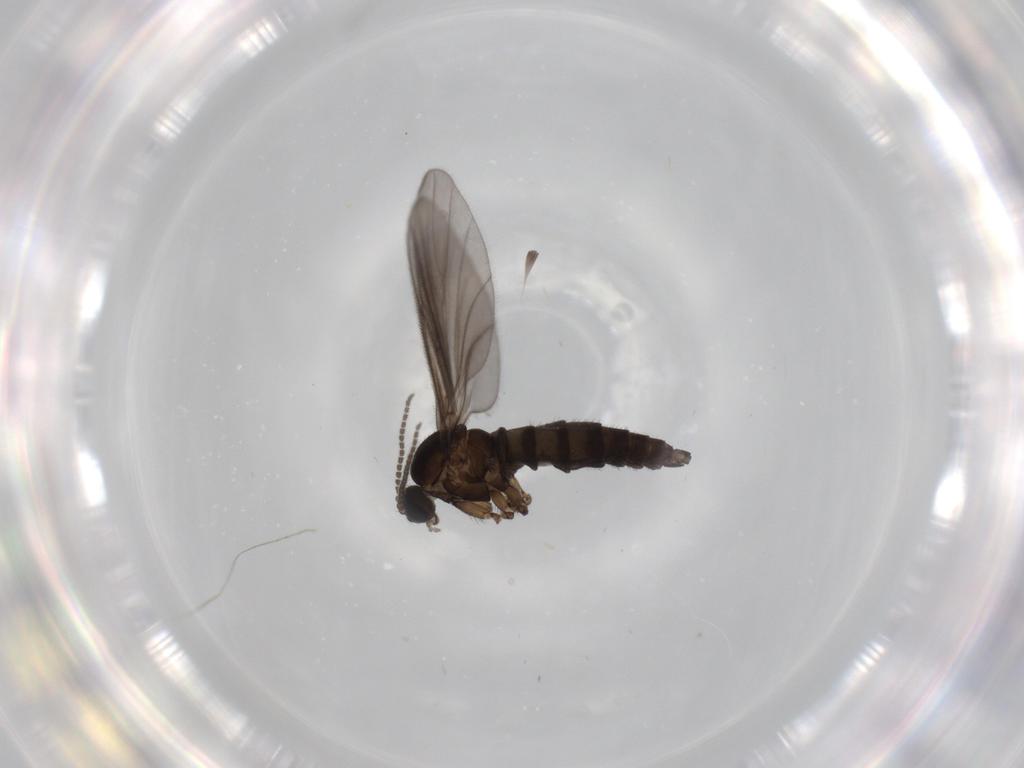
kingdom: Animalia
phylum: Arthropoda
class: Insecta
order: Diptera
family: Sciaridae
